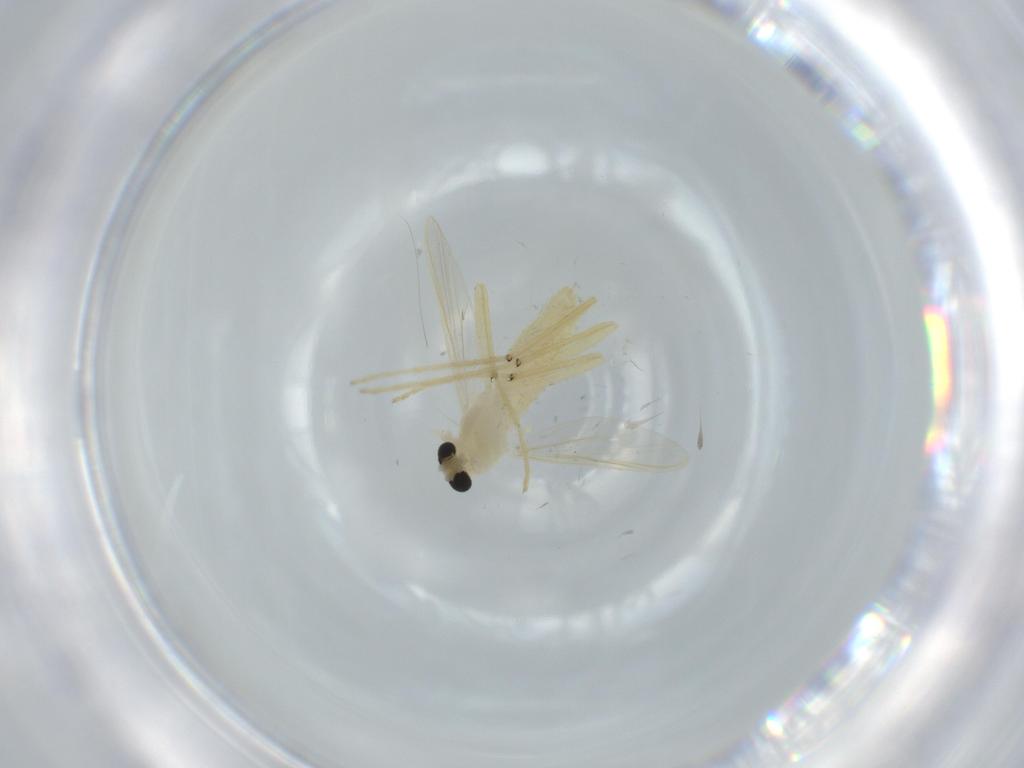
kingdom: Animalia
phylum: Arthropoda
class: Insecta
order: Diptera
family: Chironomidae
